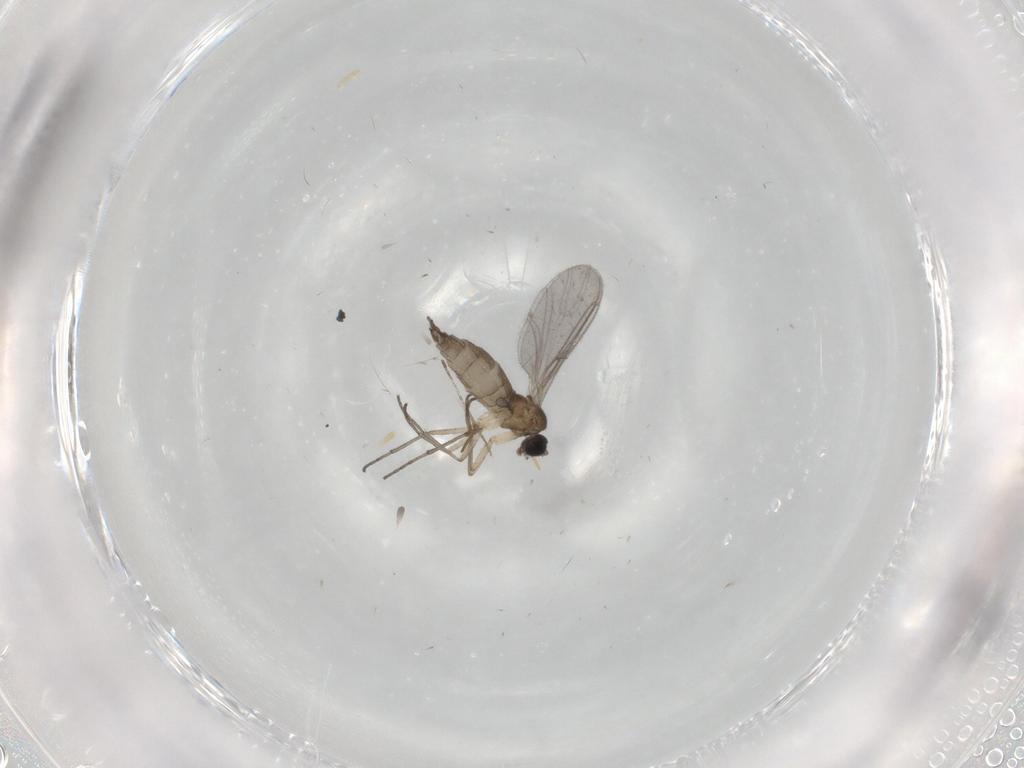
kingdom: Animalia
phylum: Arthropoda
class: Insecta
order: Diptera
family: Sciaridae
